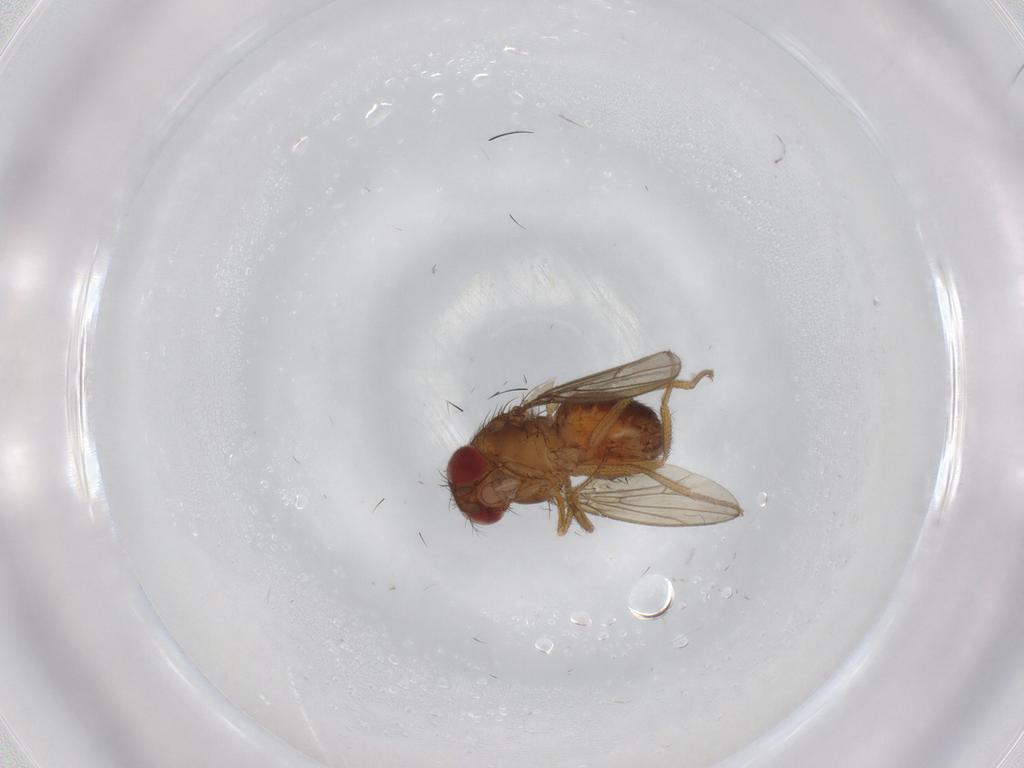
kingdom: Animalia
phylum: Arthropoda
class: Insecta
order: Diptera
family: Drosophilidae
